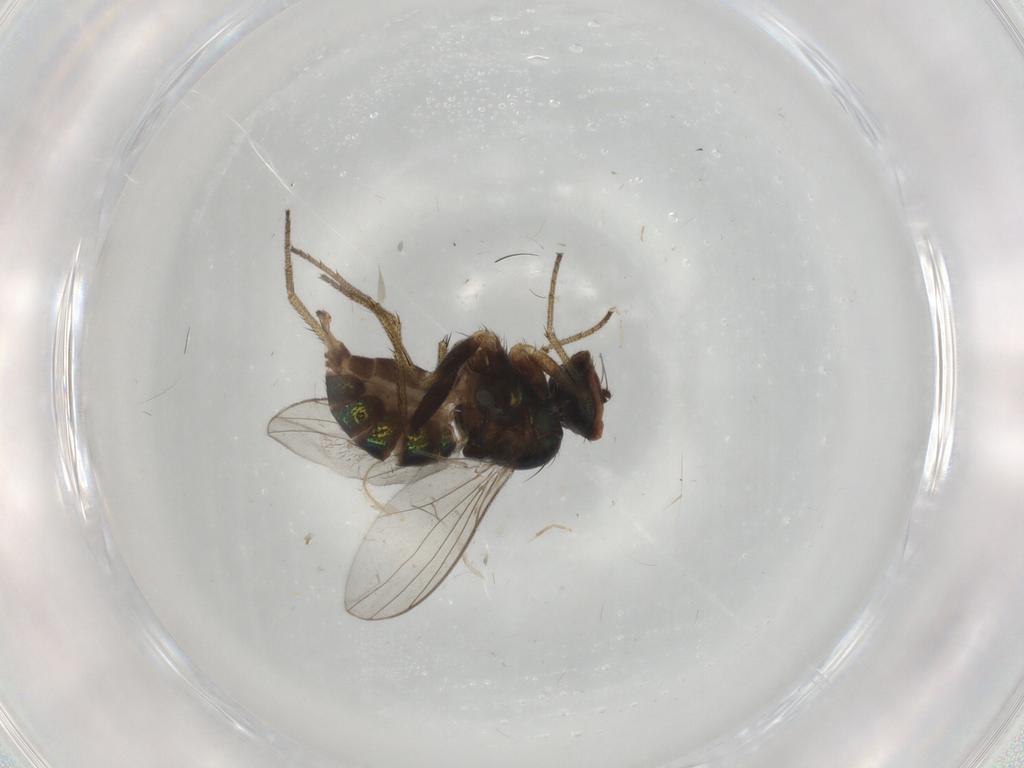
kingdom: Animalia
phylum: Arthropoda
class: Insecta
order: Diptera
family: Chironomidae
